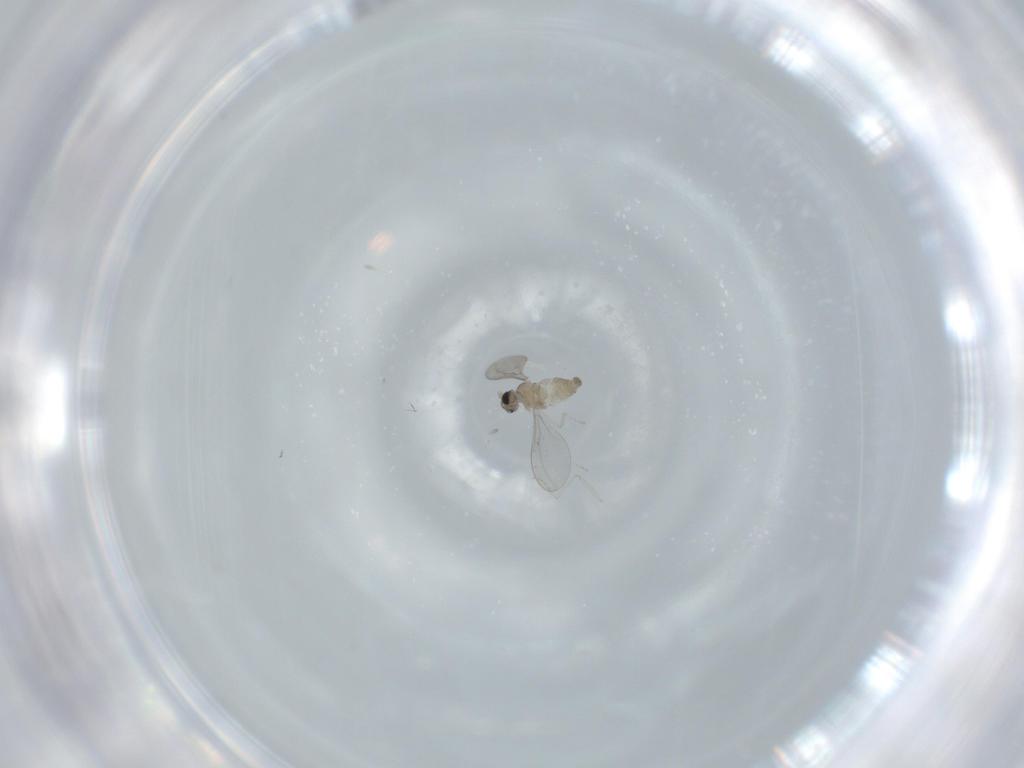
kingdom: Animalia
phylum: Arthropoda
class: Insecta
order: Diptera
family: Cecidomyiidae
